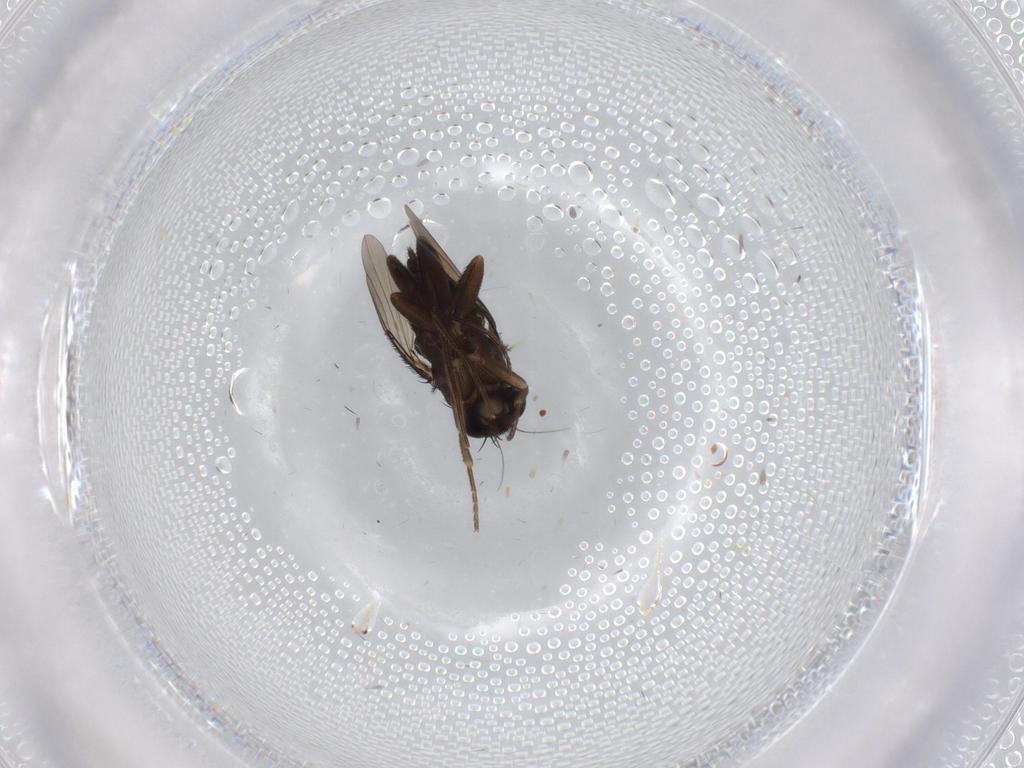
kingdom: Animalia
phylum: Arthropoda
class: Insecta
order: Diptera
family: Phoridae
